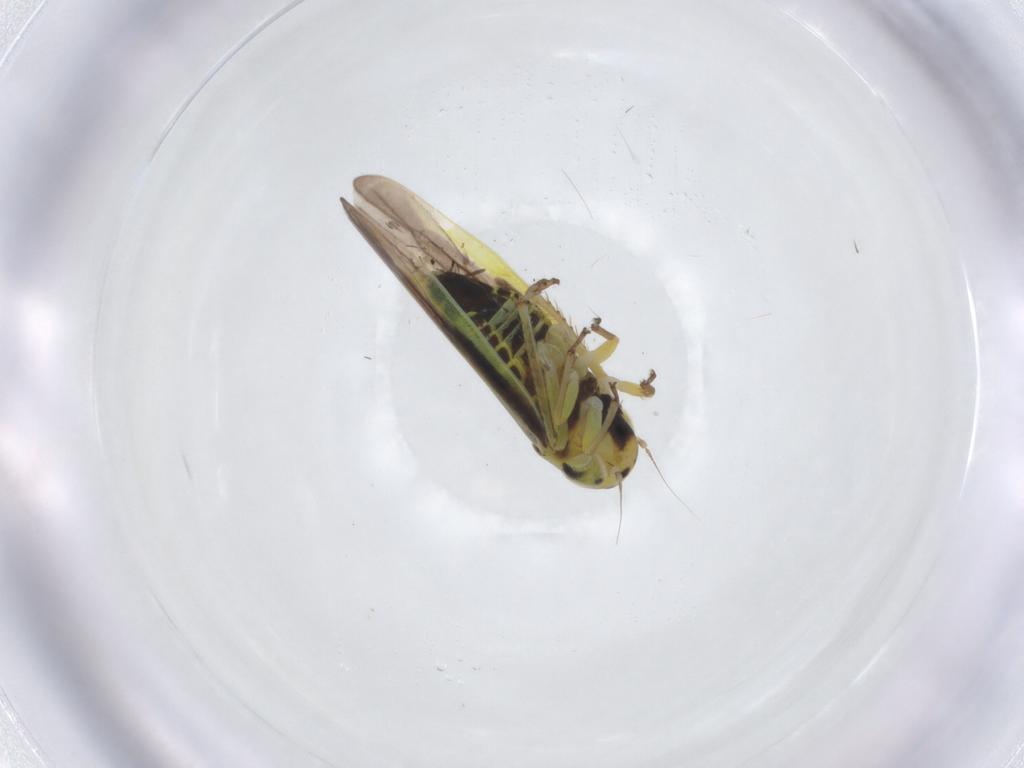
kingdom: Animalia
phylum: Arthropoda
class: Insecta
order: Hemiptera
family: Cicadellidae
